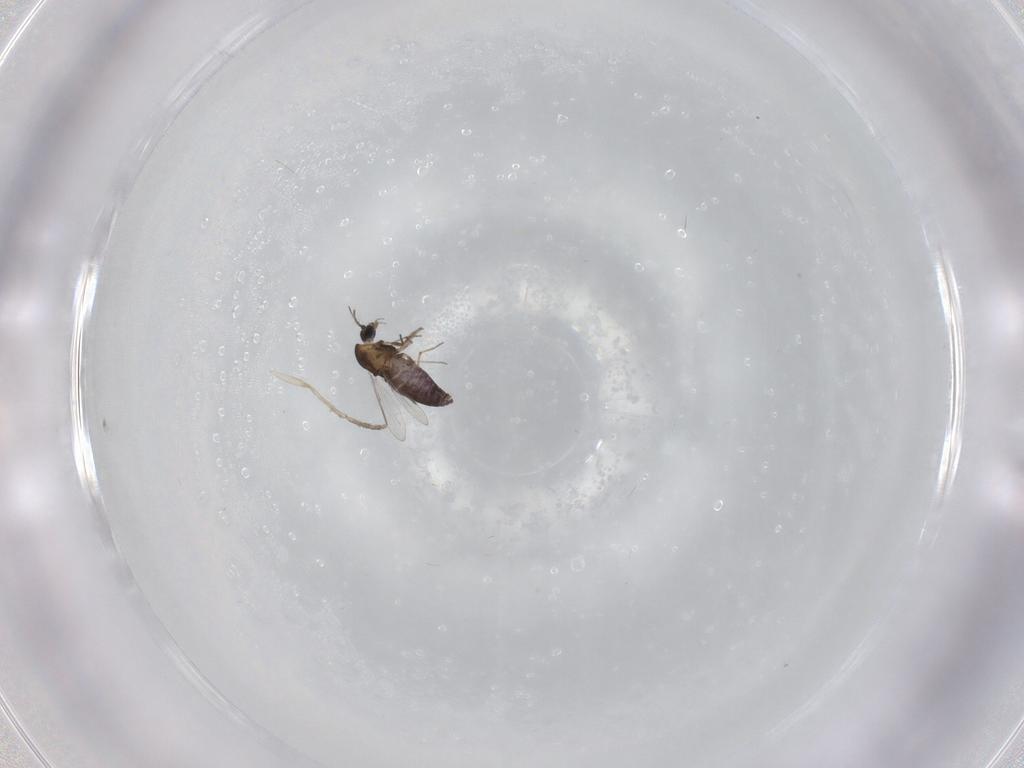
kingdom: Animalia
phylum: Arthropoda
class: Insecta
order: Diptera
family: Chironomidae
